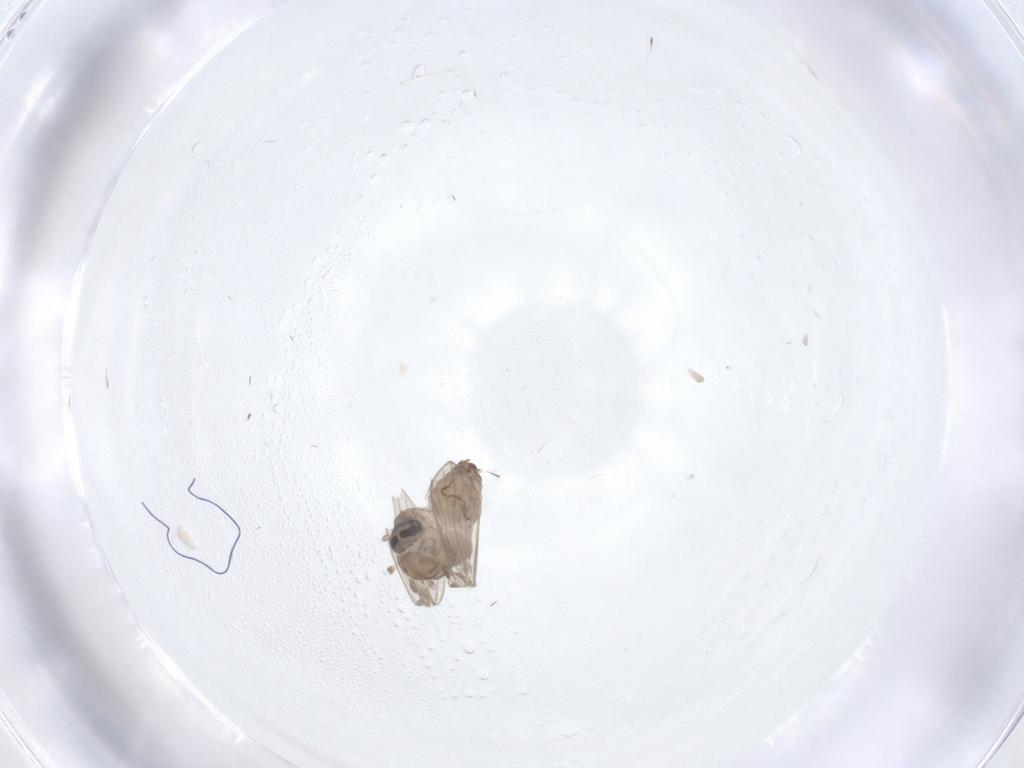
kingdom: Animalia
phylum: Arthropoda
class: Insecta
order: Diptera
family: Psychodidae
